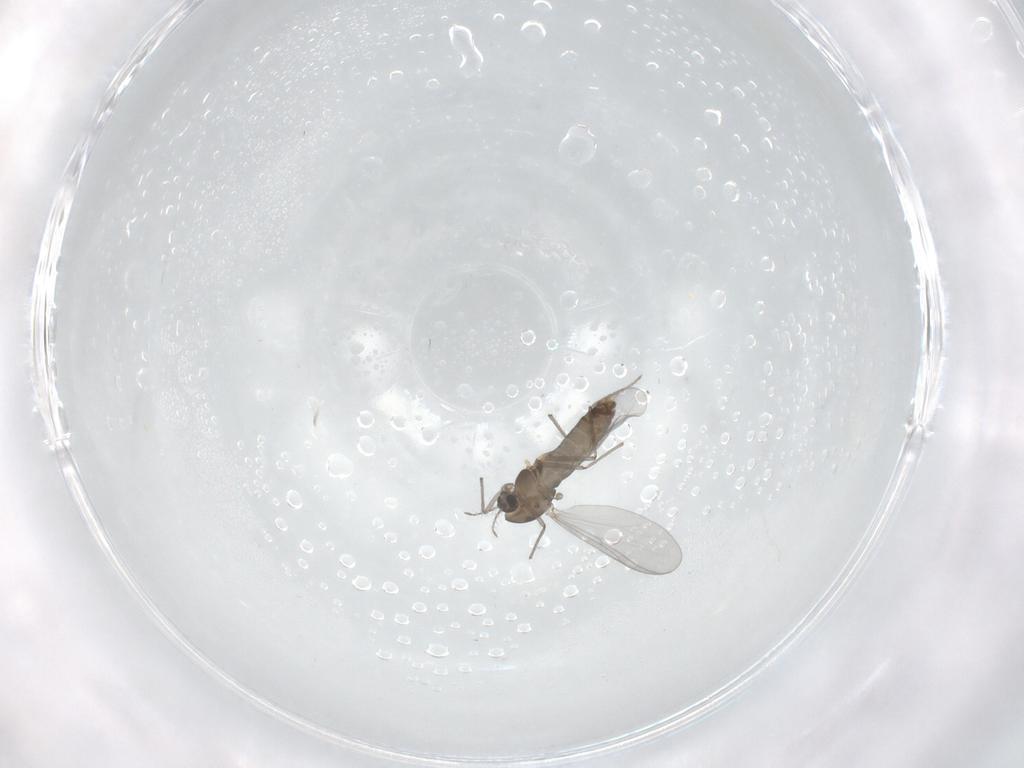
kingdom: Animalia
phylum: Arthropoda
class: Insecta
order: Diptera
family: Chironomidae
